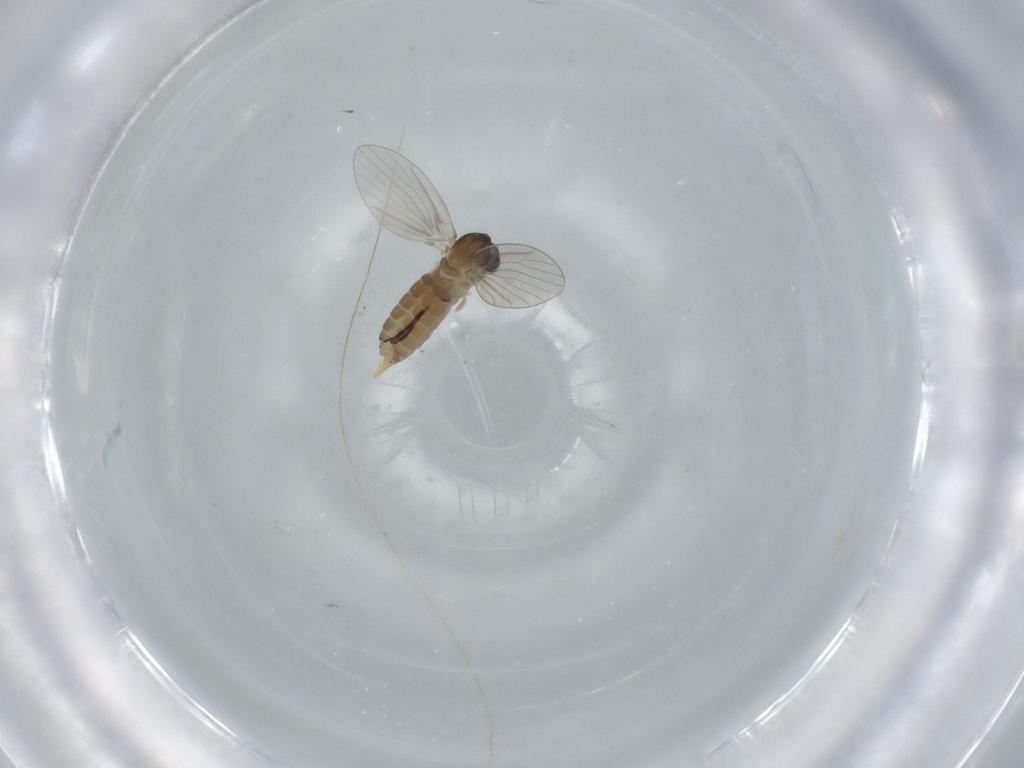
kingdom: Animalia
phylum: Arthropoda
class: Insecta
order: Diptera
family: Psychodidae
